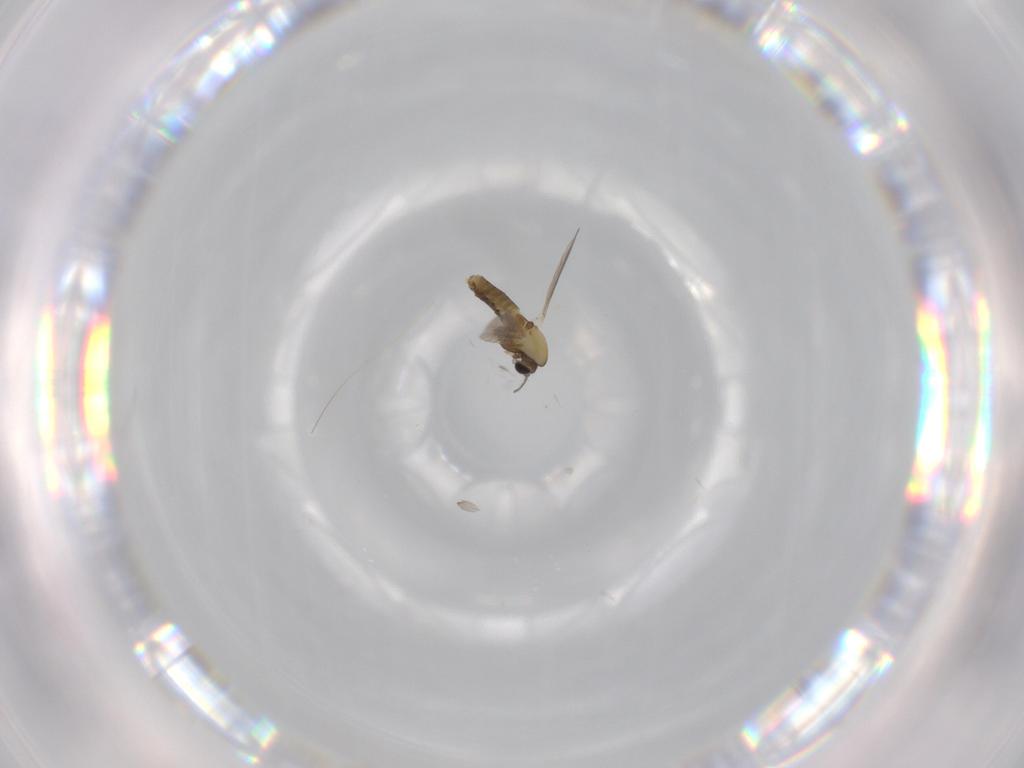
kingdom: Animalia
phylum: Arthropoda
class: Insecta
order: Diptera
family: Chironomidae
